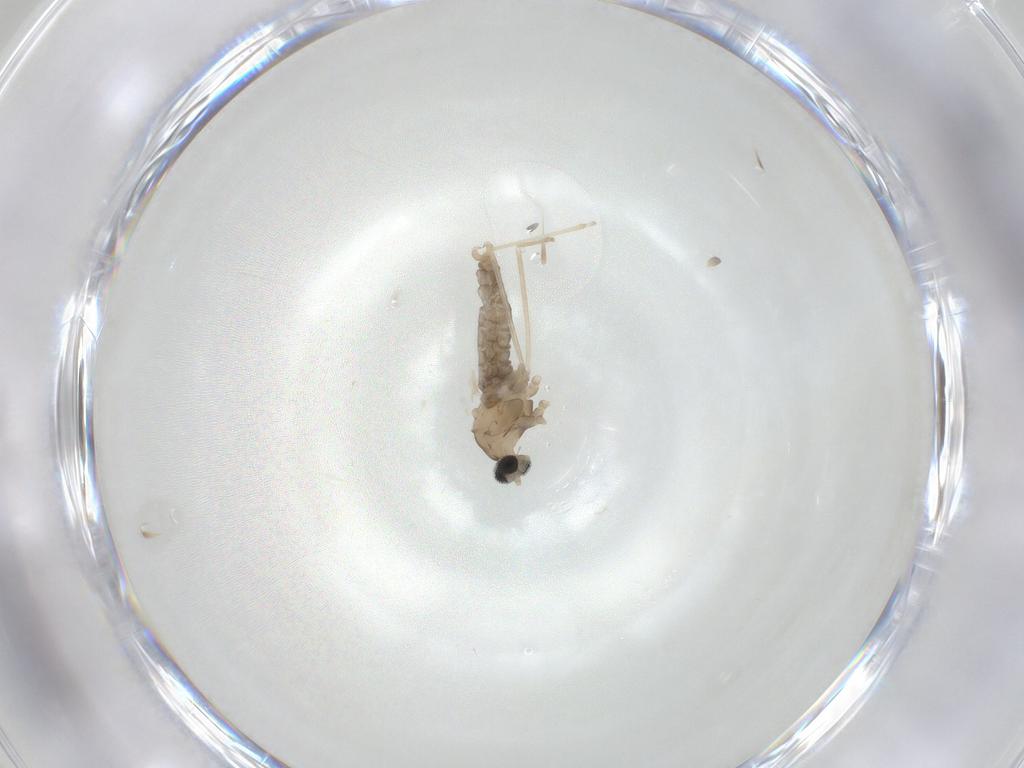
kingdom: Animalia
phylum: Arthropoda
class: Insecta
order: Diptera
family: Cecidomyiidae
